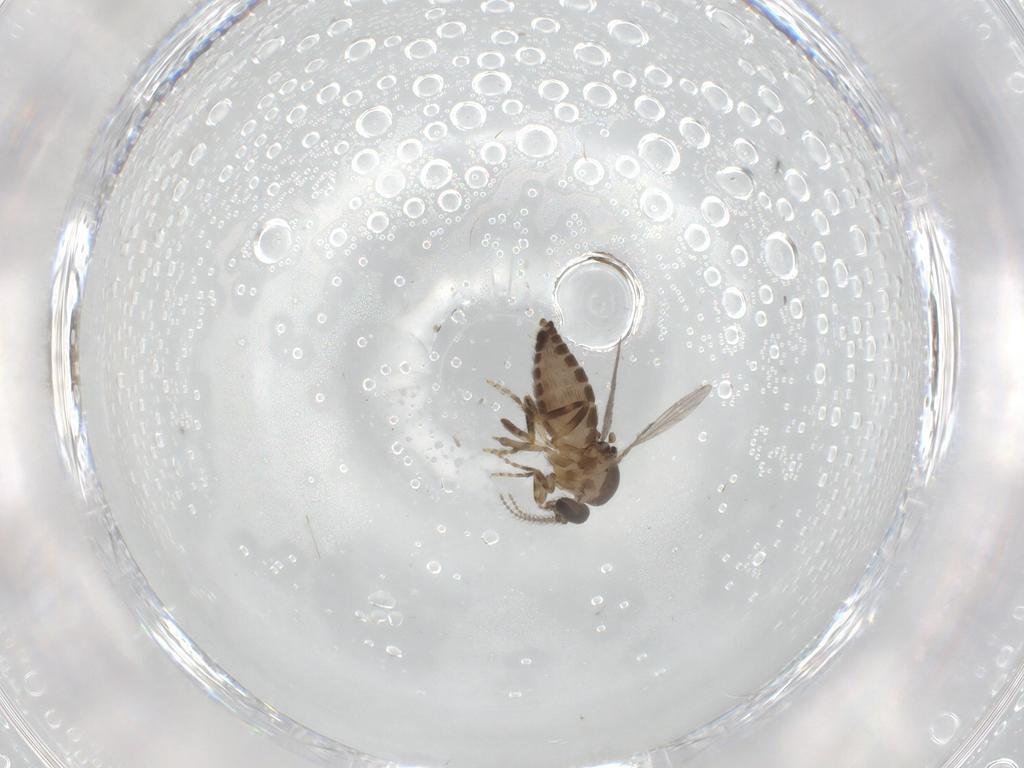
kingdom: Animalia
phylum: Arthropoda
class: Insecta
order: Diptera
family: Ceratopogonidae
